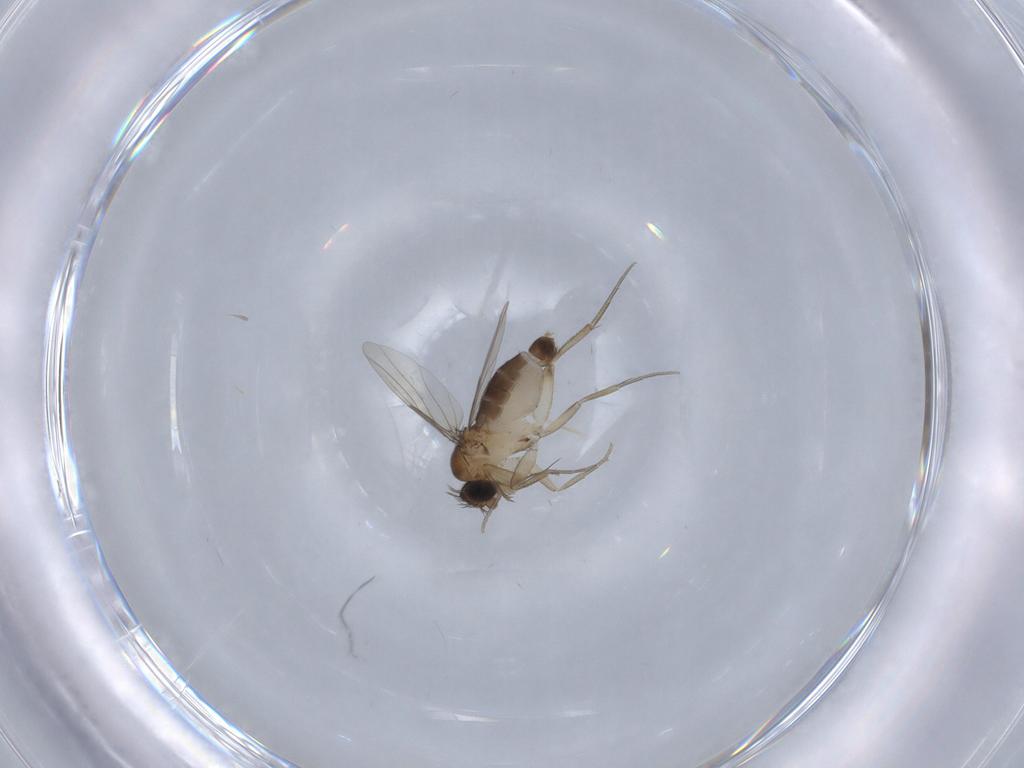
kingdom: Animalia
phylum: Arthropoda
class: Insecta
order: Diptera
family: Phoridae
